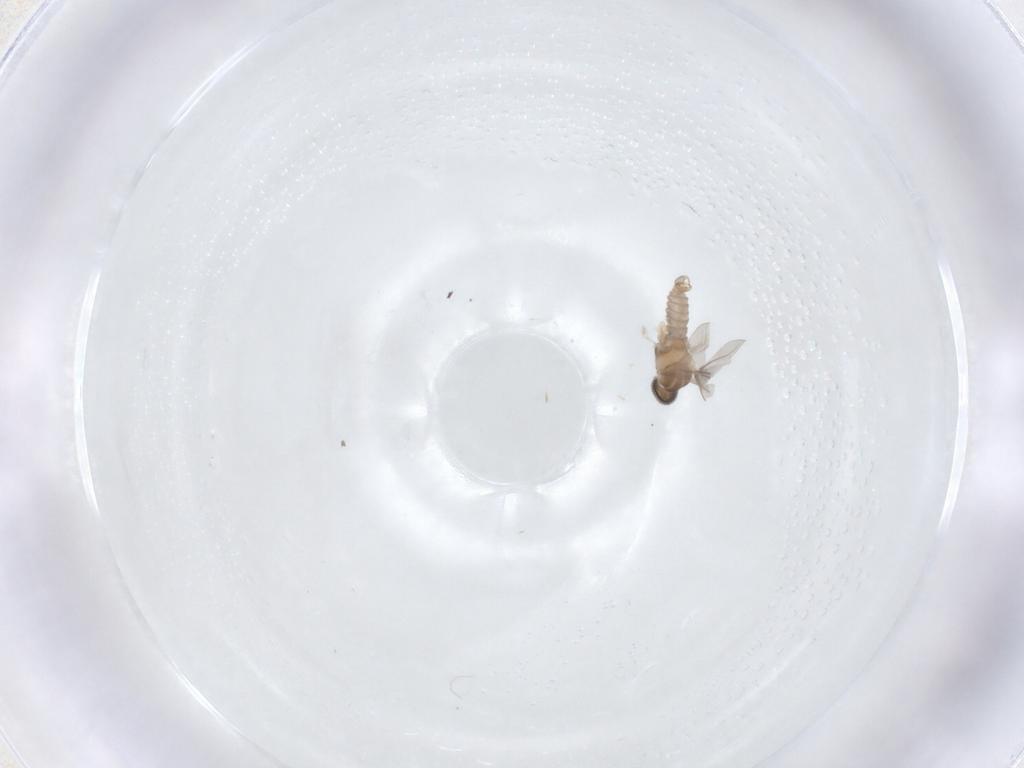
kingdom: Animalia
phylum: Arthropoda
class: Insecta
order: Diptera
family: Cecidomyiidae
